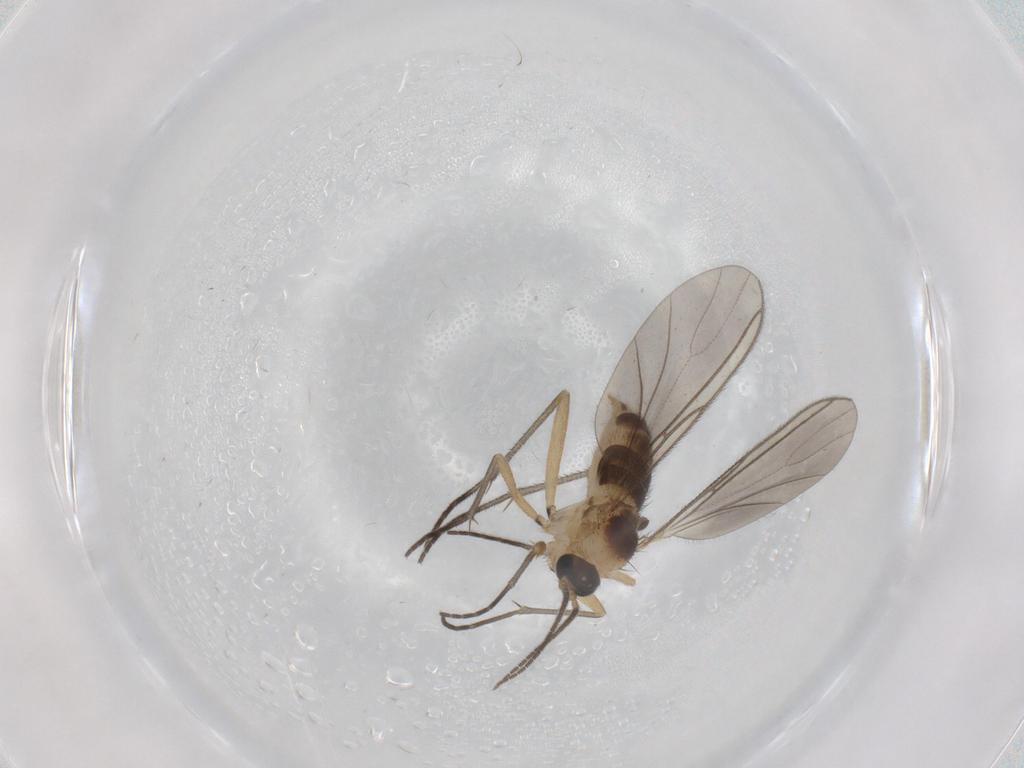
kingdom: Animalia
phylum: Arthropoda
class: Insecta
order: Diptera
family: Sciaridae
